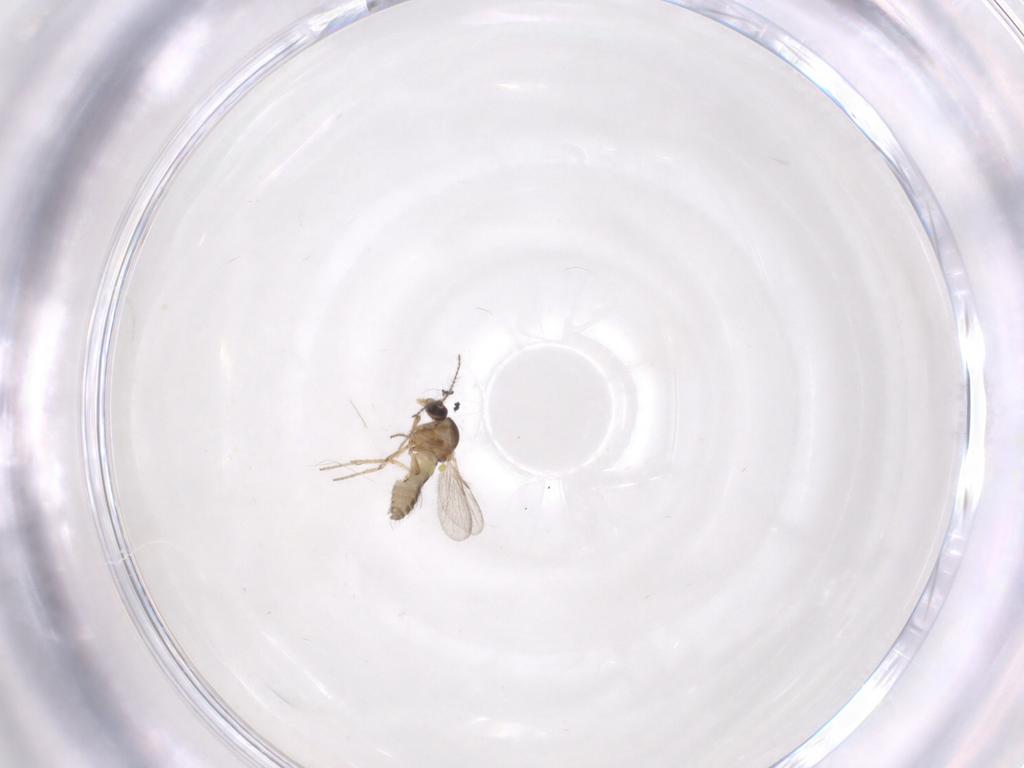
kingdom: Animalia
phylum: Arthropoda
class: Insecta
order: Diptera
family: Ceratopogonidae
